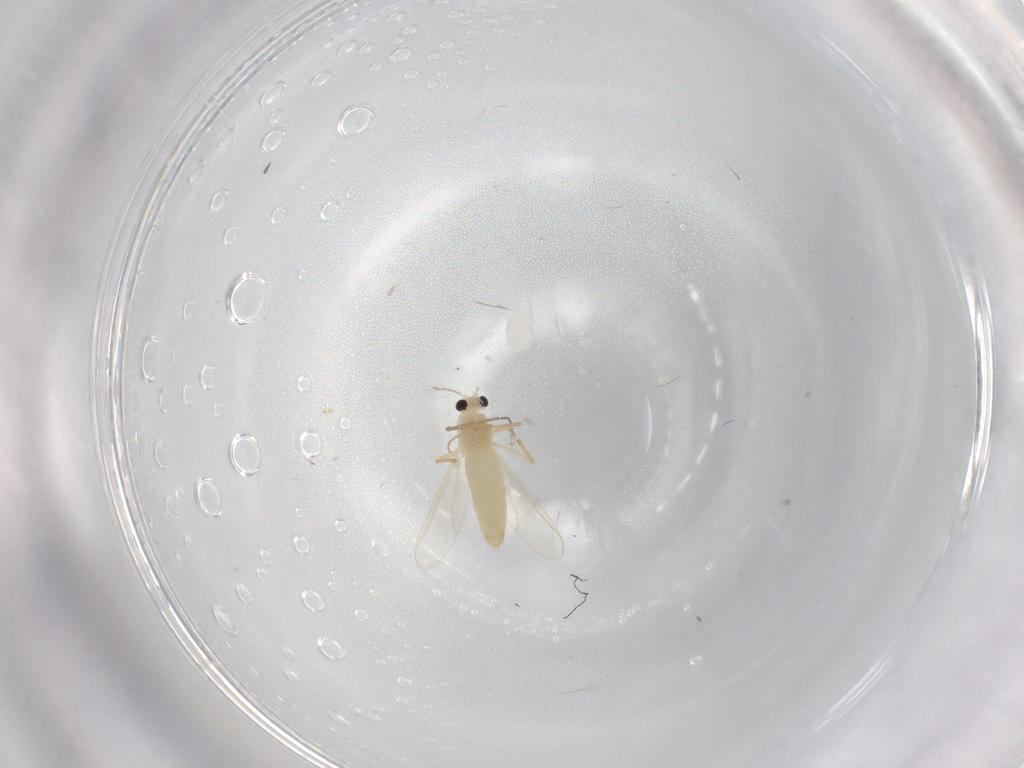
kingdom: Animalia
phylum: Arthropoda
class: Insecta
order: Diptera
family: Chironomidae
